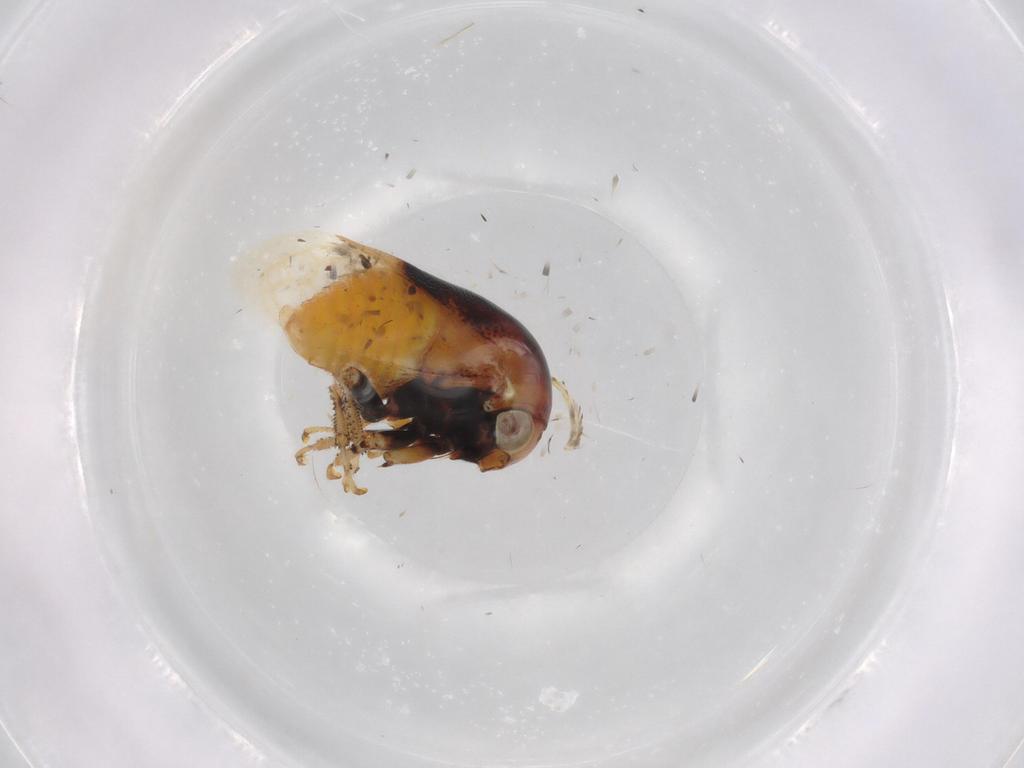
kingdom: Animalia
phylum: Arthropoda
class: Insecta
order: Hemiptera
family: Membracidae
